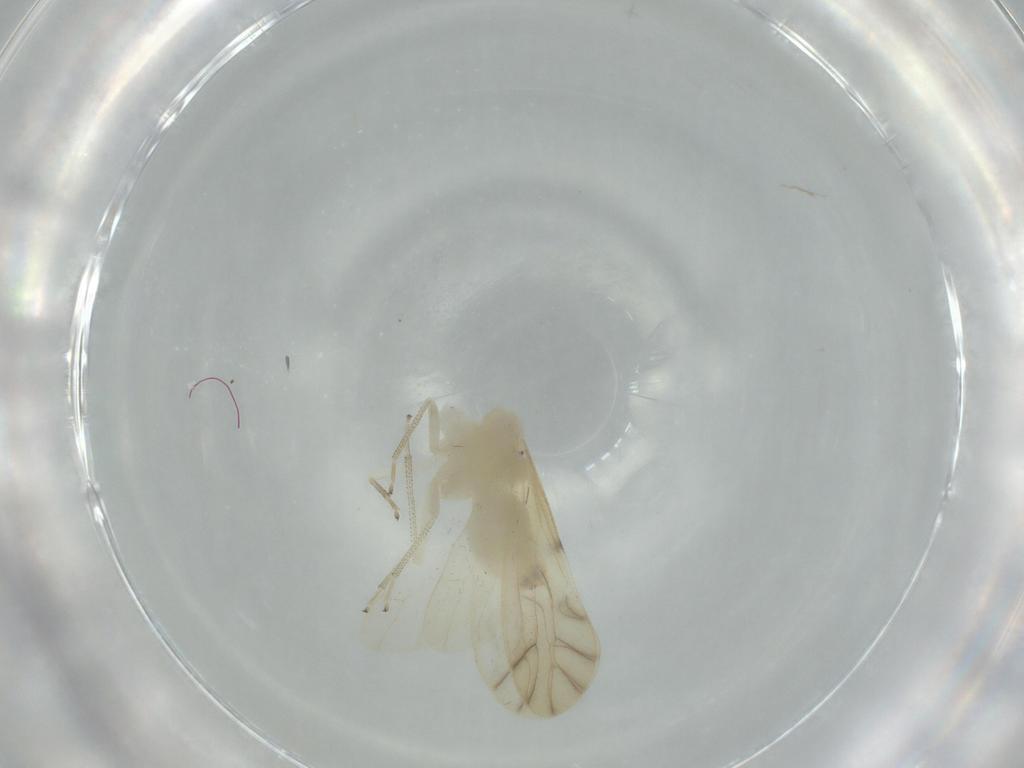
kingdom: Animalia
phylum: Arthropoda
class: Insecta
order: Psocodea
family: Caeciliusidae
